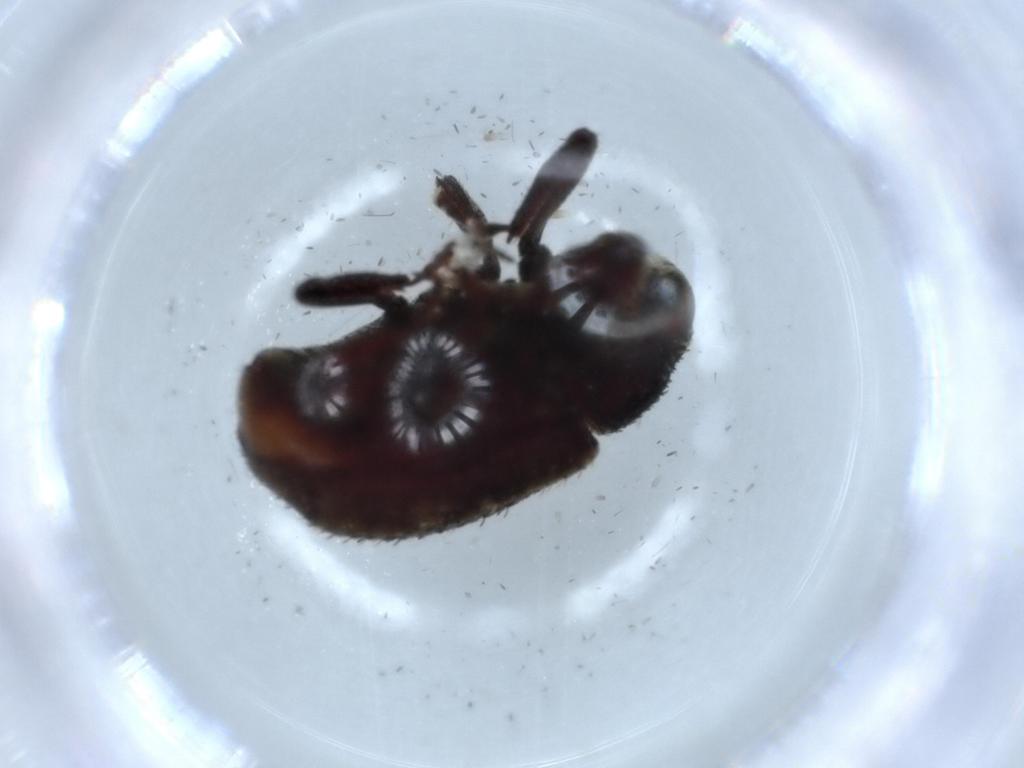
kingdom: Animalia
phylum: Arthropoda
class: Insecta
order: Coleoptera
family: Curculionidae
